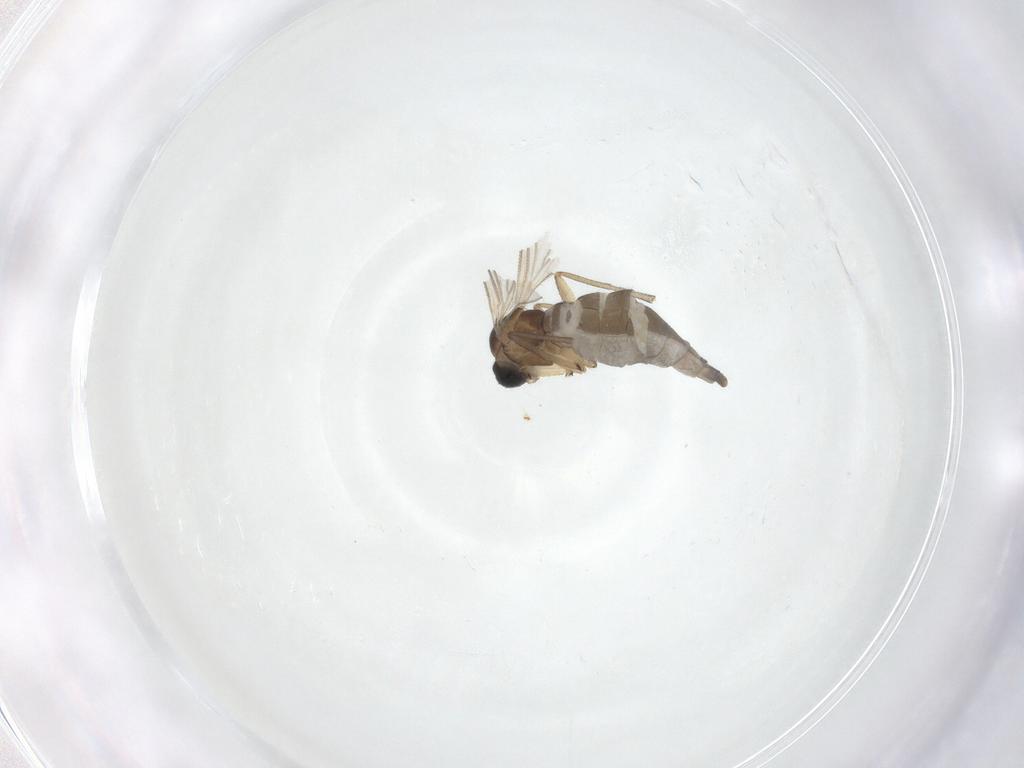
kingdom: Animalia
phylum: Arthropoda
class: Insecta
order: Diptera
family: Sciaridae
